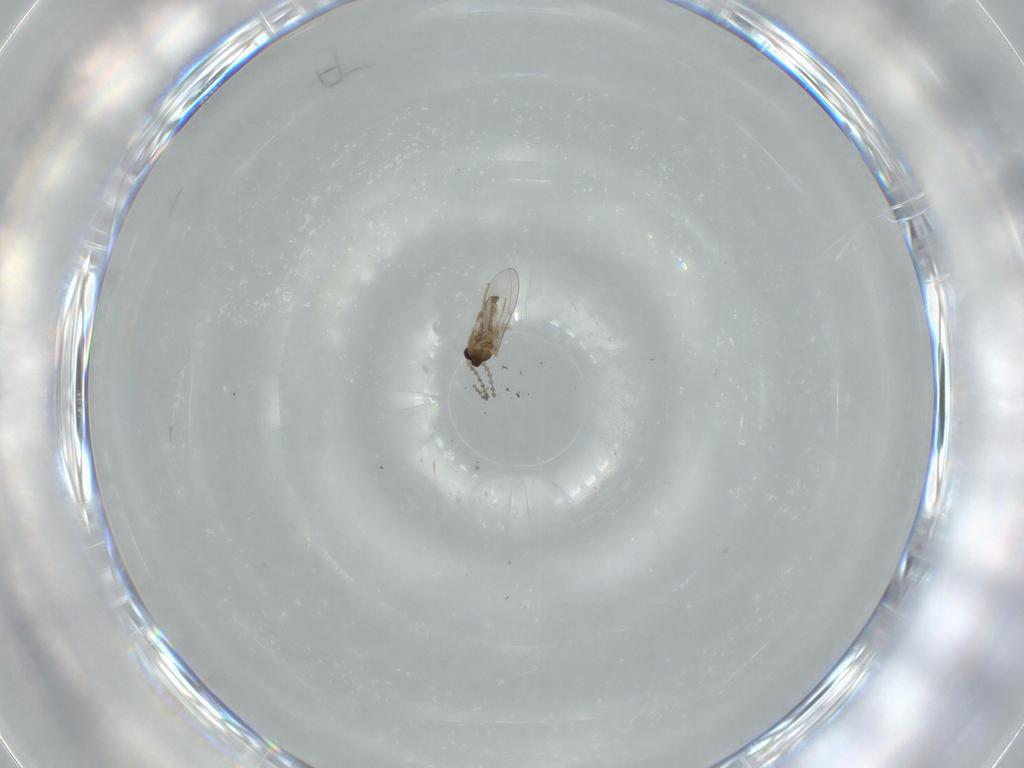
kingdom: Animalia
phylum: Arthropoda
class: Insecta
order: Diptera
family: Cecidomyiidae
